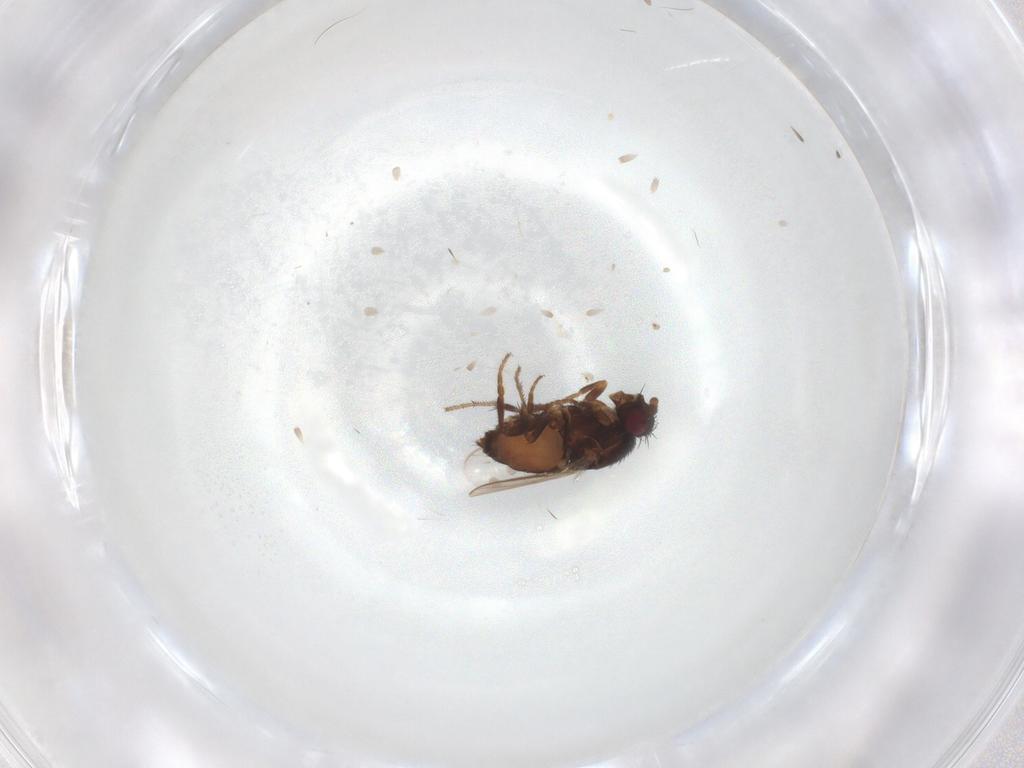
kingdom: Animalia
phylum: Arthropoda
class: Insecta
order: Diptera
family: Sphaeroceridae
